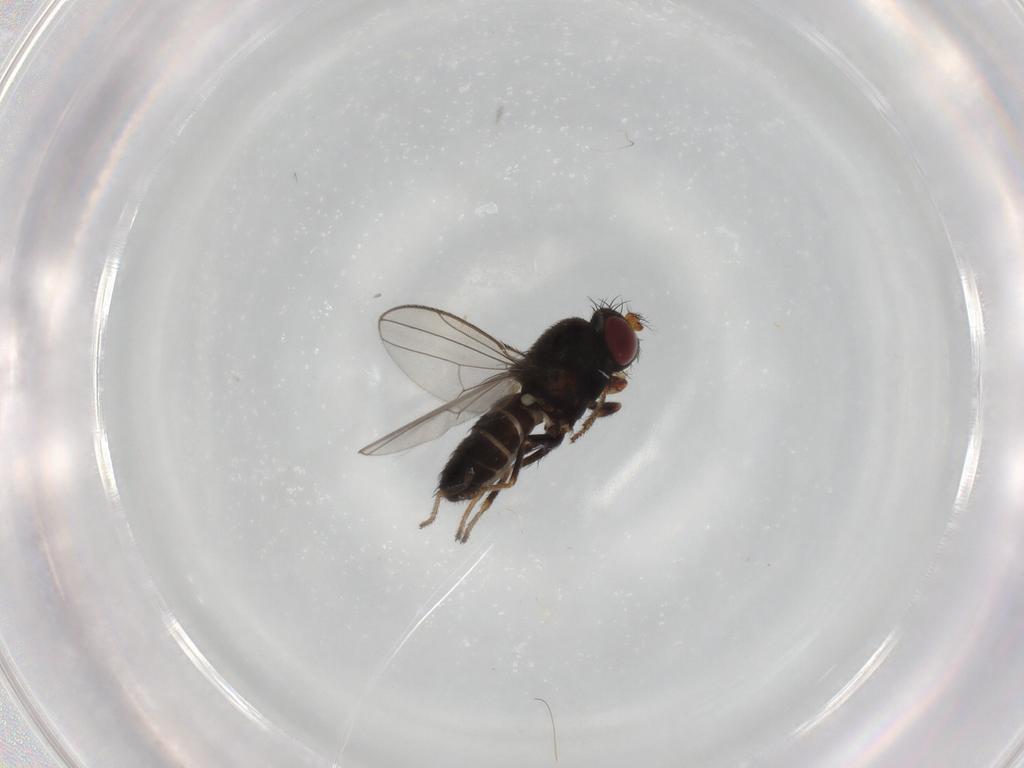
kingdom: Animalia
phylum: Arthropoda
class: Insecta
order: Diptera
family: Ephydridae
